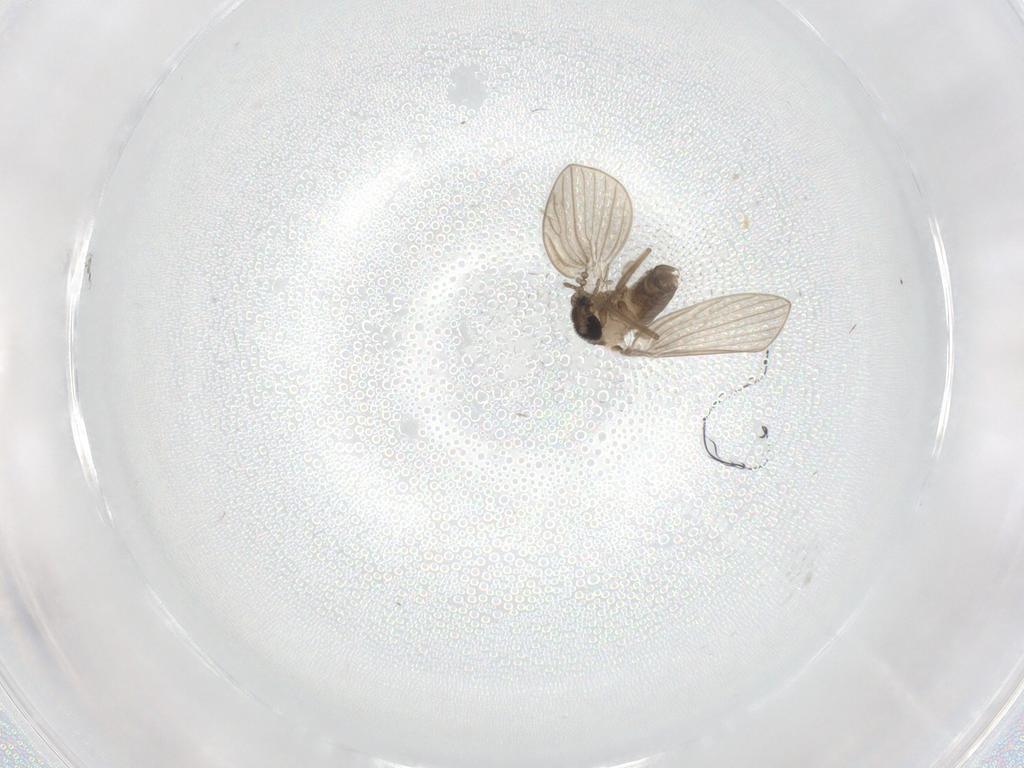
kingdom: Animalia
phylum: Arthropoda
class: Insecta
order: Diptera
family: Psychodidae
